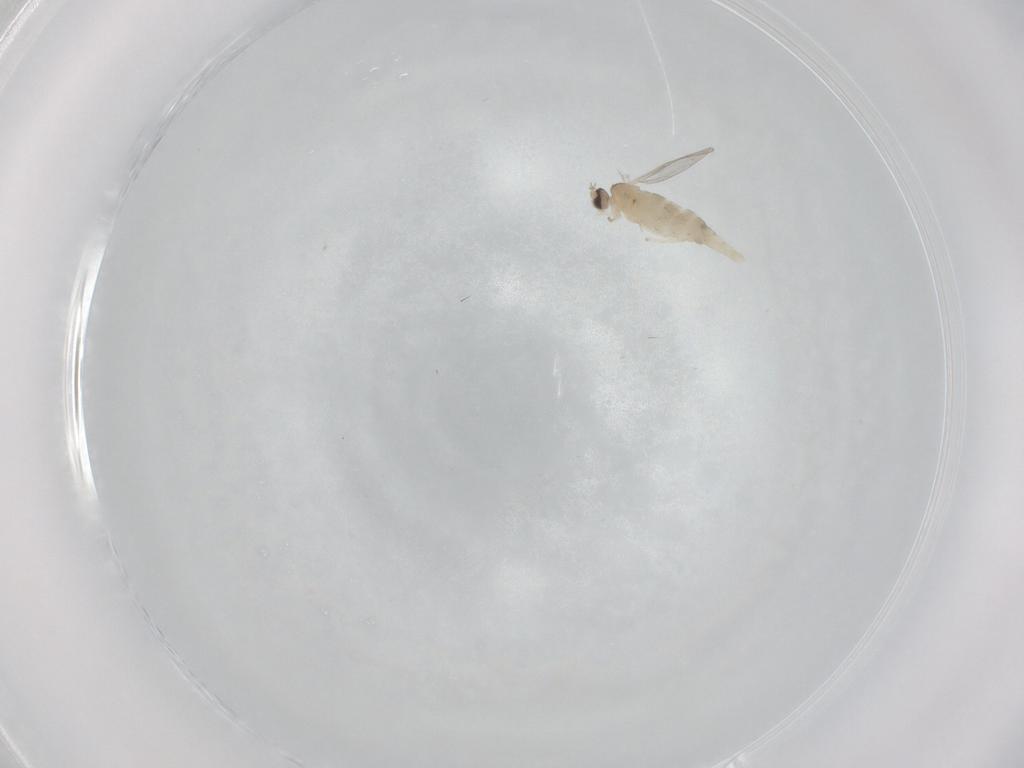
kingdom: Animalia
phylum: Arthropoda
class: Insecta
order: Diptera
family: Cecidomyiidae
